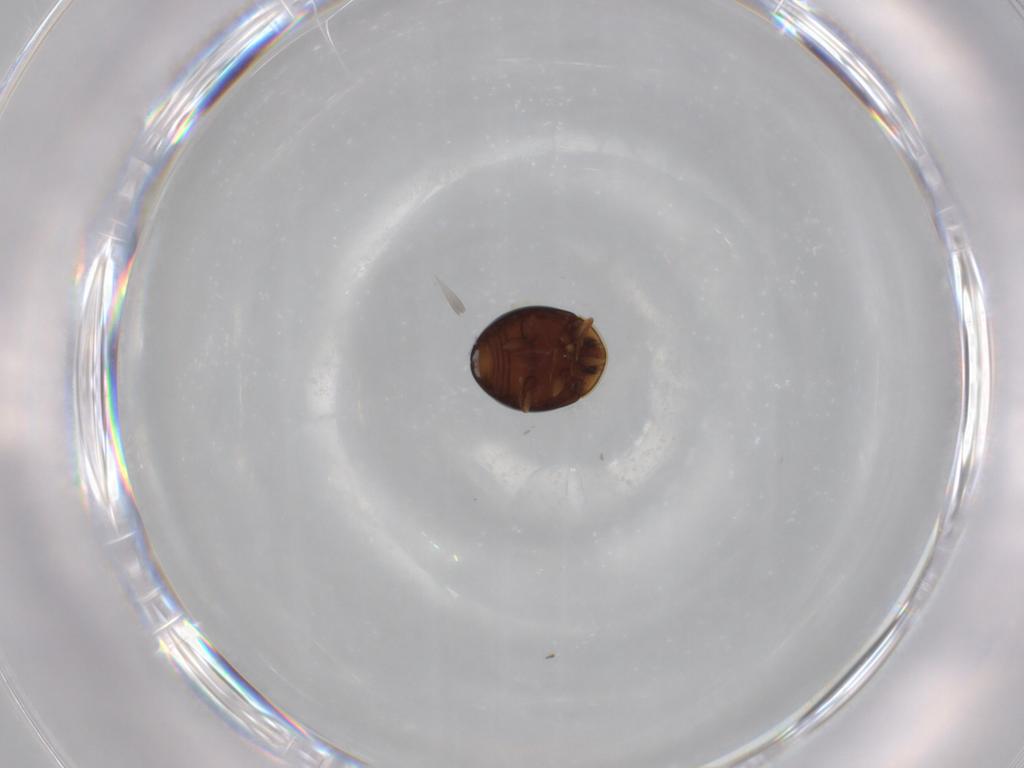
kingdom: Animalia
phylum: Arthropoda
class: Insecta
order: Coleoptera
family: Corylophidae
